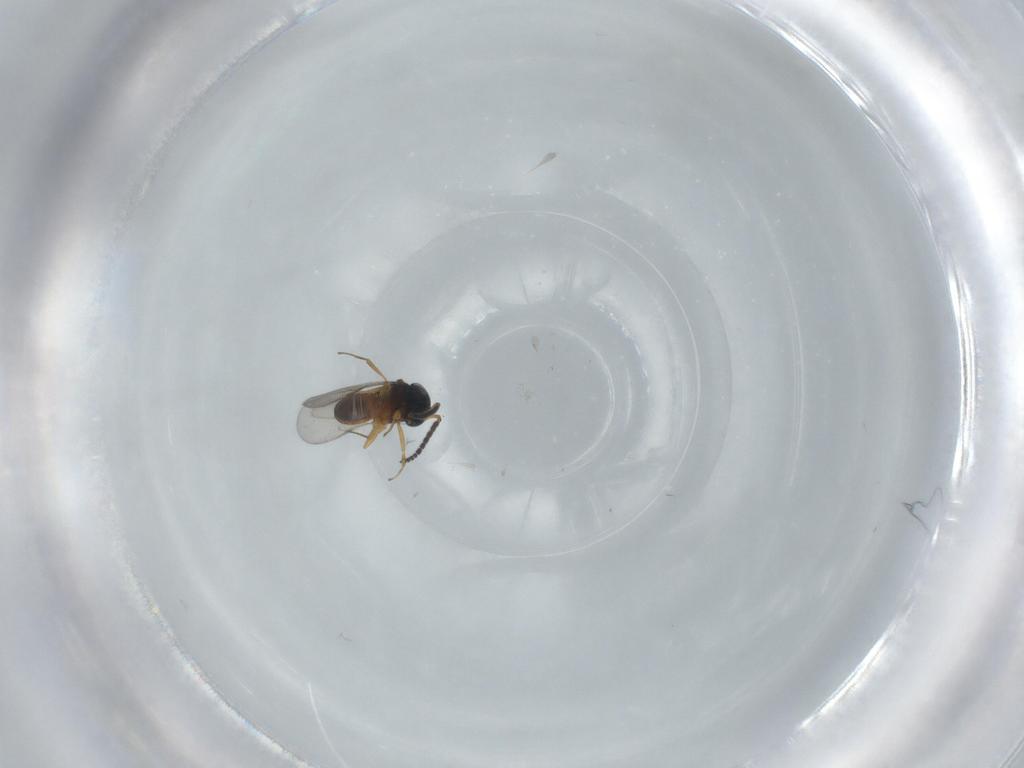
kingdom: Animalia
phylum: Arthropoda
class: Insecta
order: Hymenoptera
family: Scelionidae
